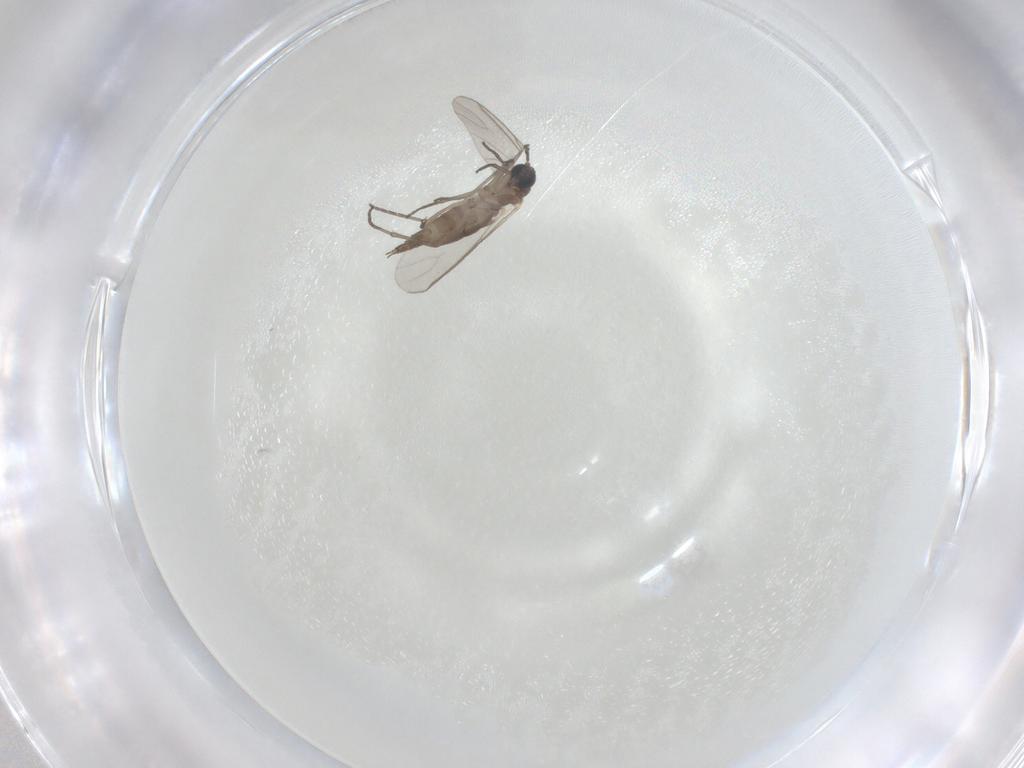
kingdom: Animalia
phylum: Arthropoda
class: Insecta
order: Diptera
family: Sciaridae
